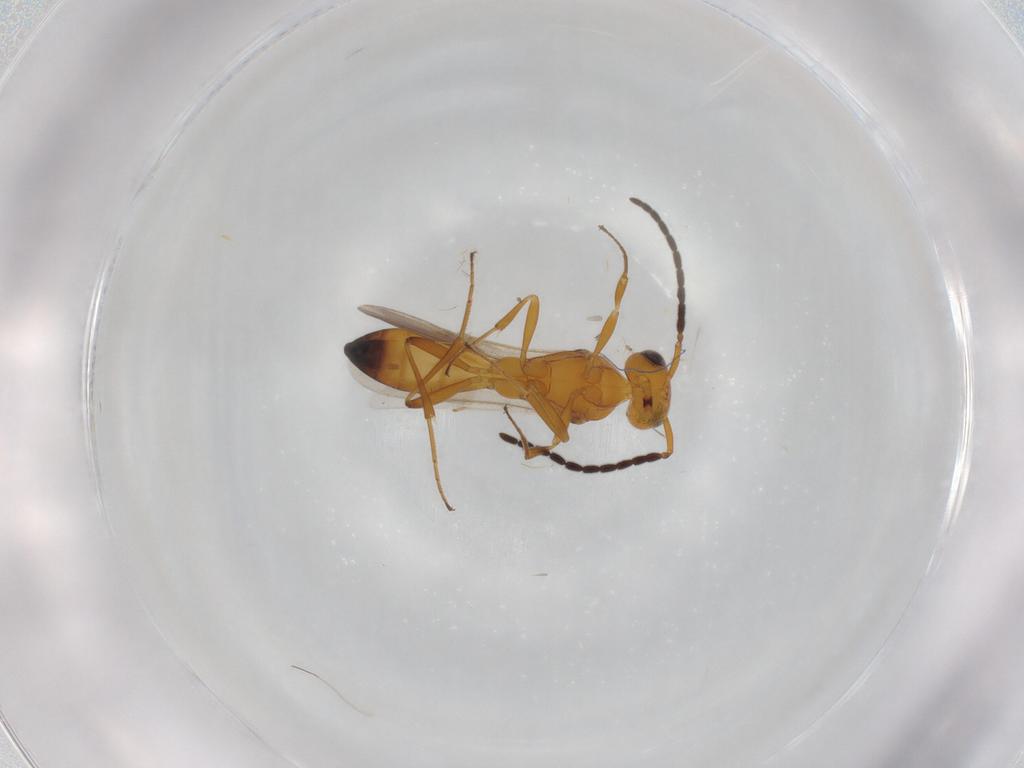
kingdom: Animalia
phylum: Arthropoda
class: Insecta
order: Hymenoptera
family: Scelionidae
